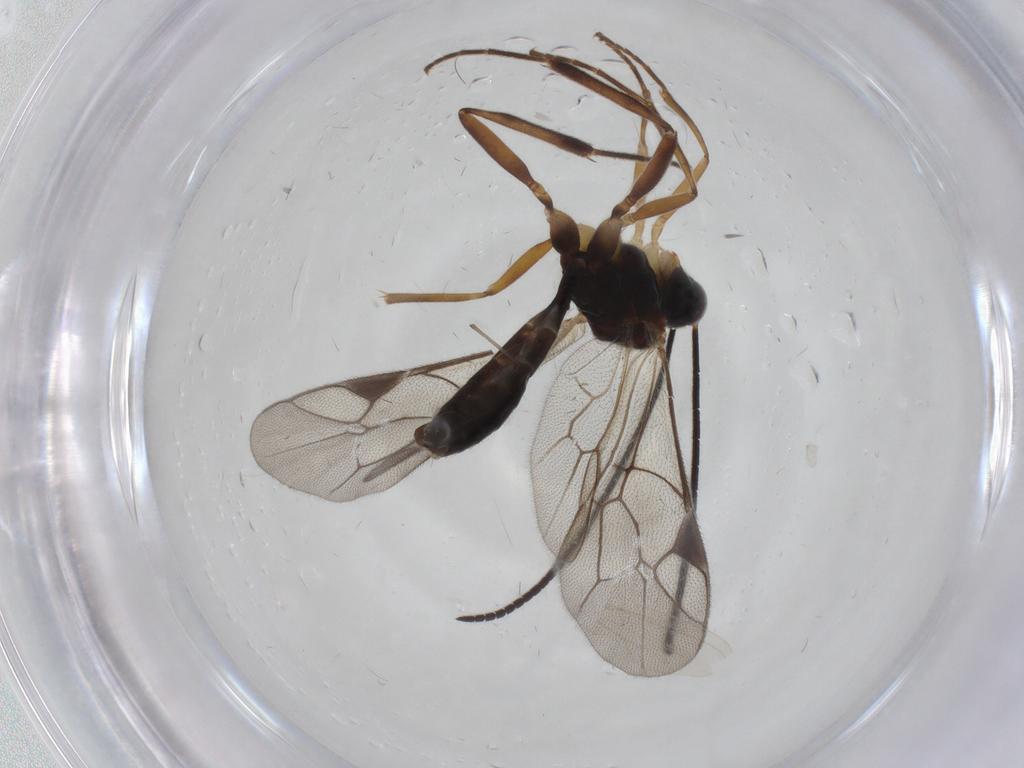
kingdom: Animalia
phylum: Arthropoda
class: Insecta
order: Hymenoptera
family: Ichneumonidae
